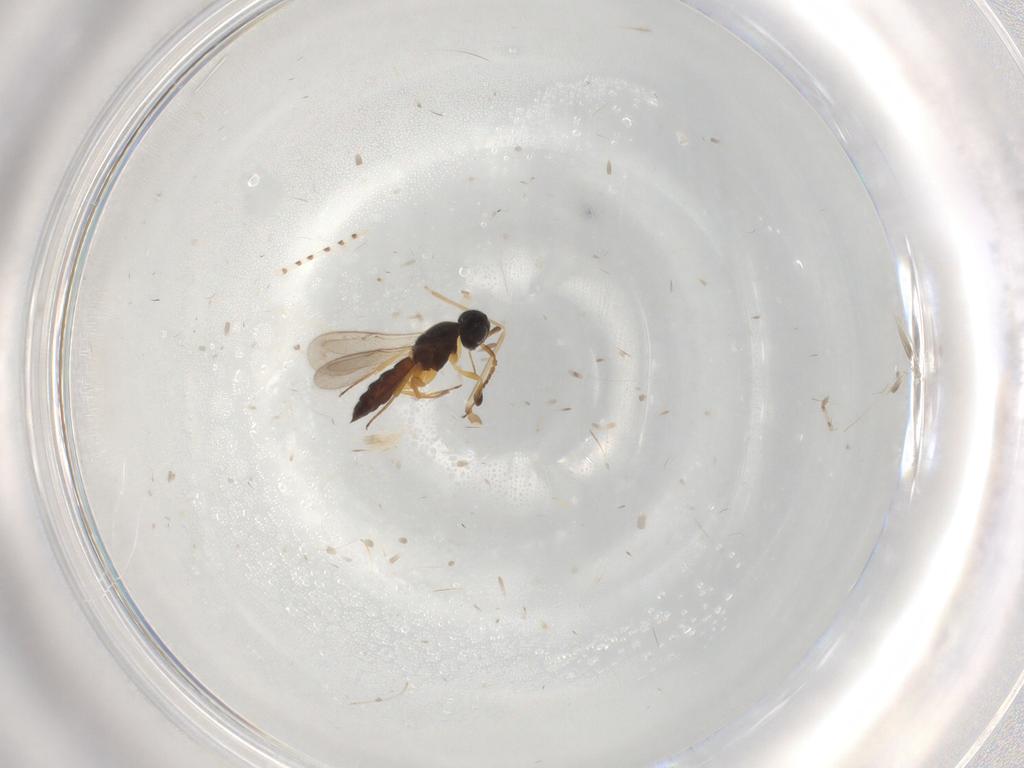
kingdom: Animalia
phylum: Arthropoda
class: Insecta
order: Hymenoptera
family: Scelionidae
